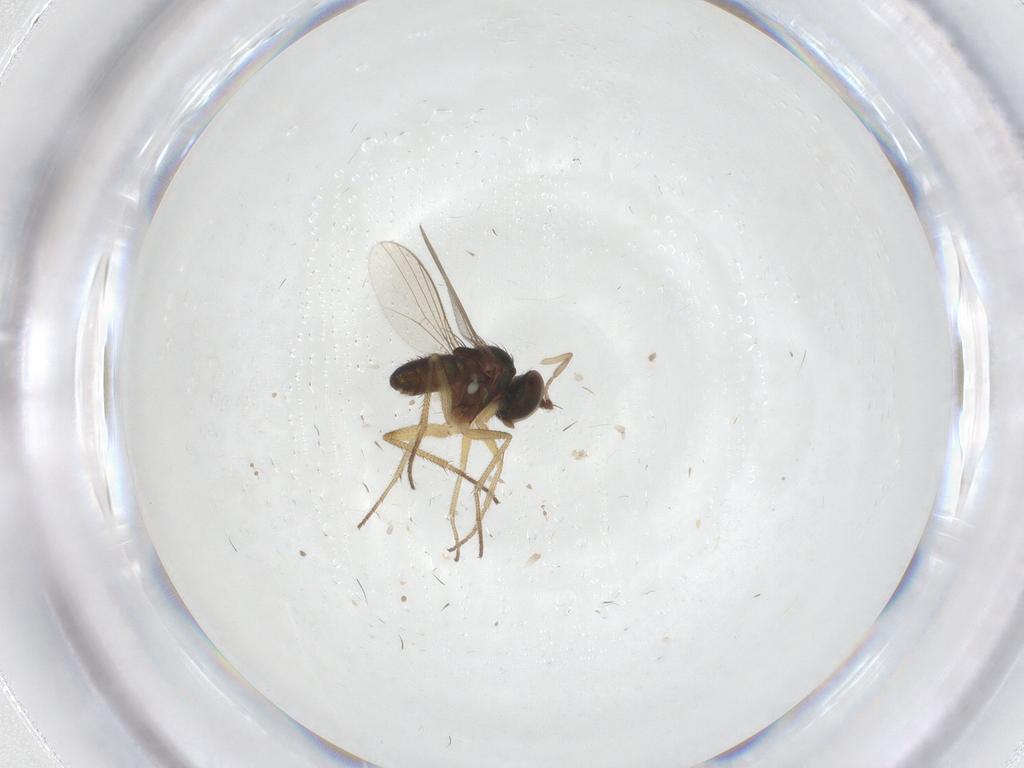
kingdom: Animalia
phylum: Arthropoda
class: Insecta
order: Diptera
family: Psychodidae
